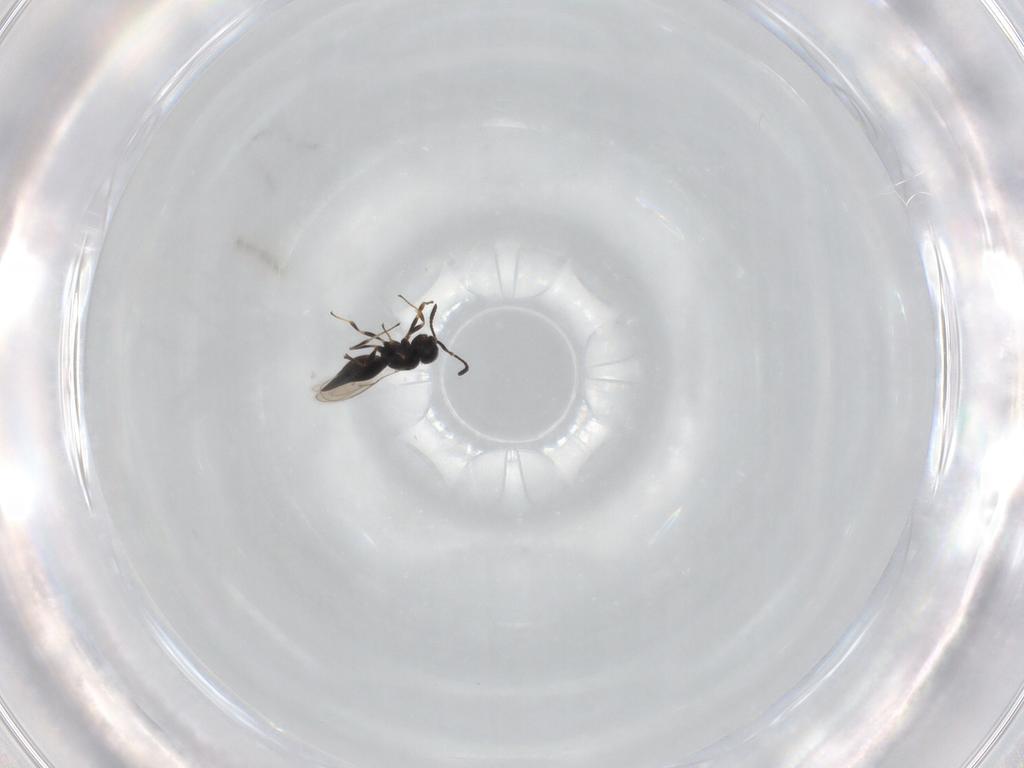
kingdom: Animalia
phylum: Arthropoda
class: Insecta
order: Hymenoptera
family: Scelionidae
